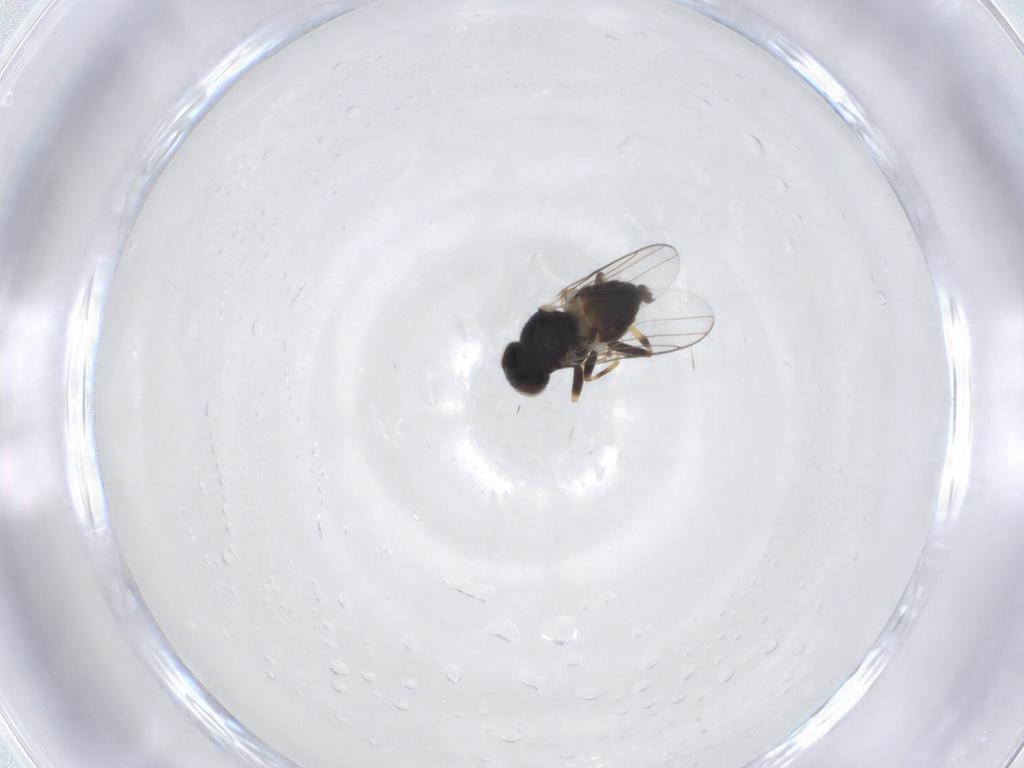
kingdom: Animalia
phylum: Arthropoda
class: Insecta
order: Diptera
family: Chloropidae
